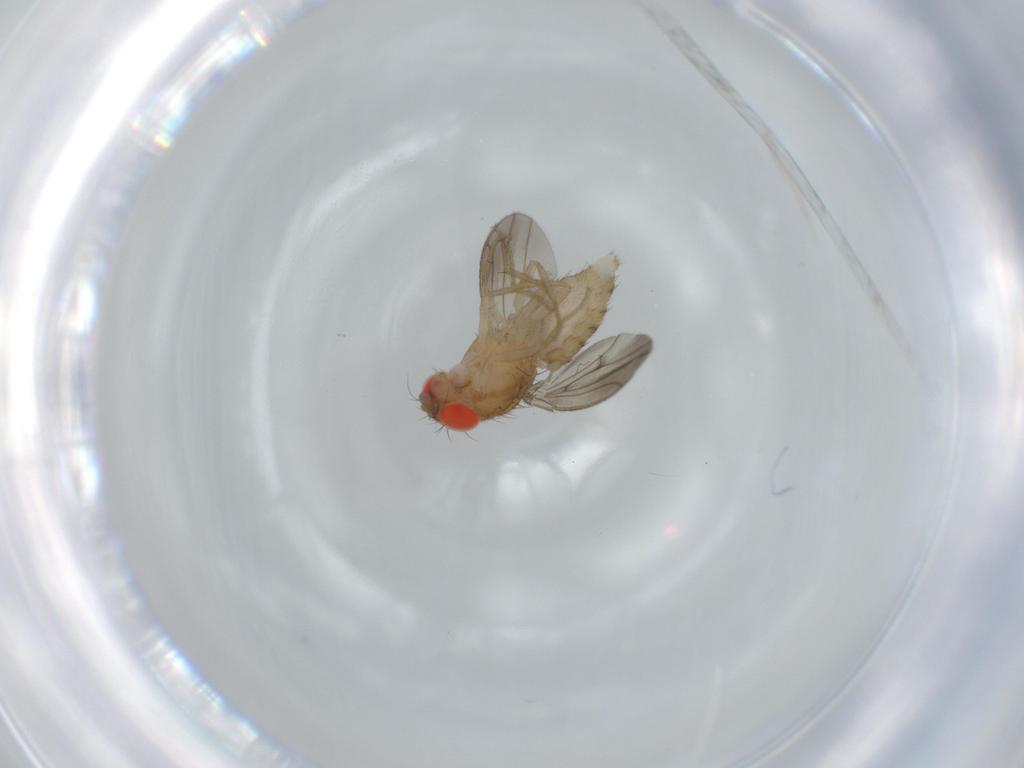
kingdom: Animalia
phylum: Arthropoda
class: Insecta
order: Diptera
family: Drosophilidae
